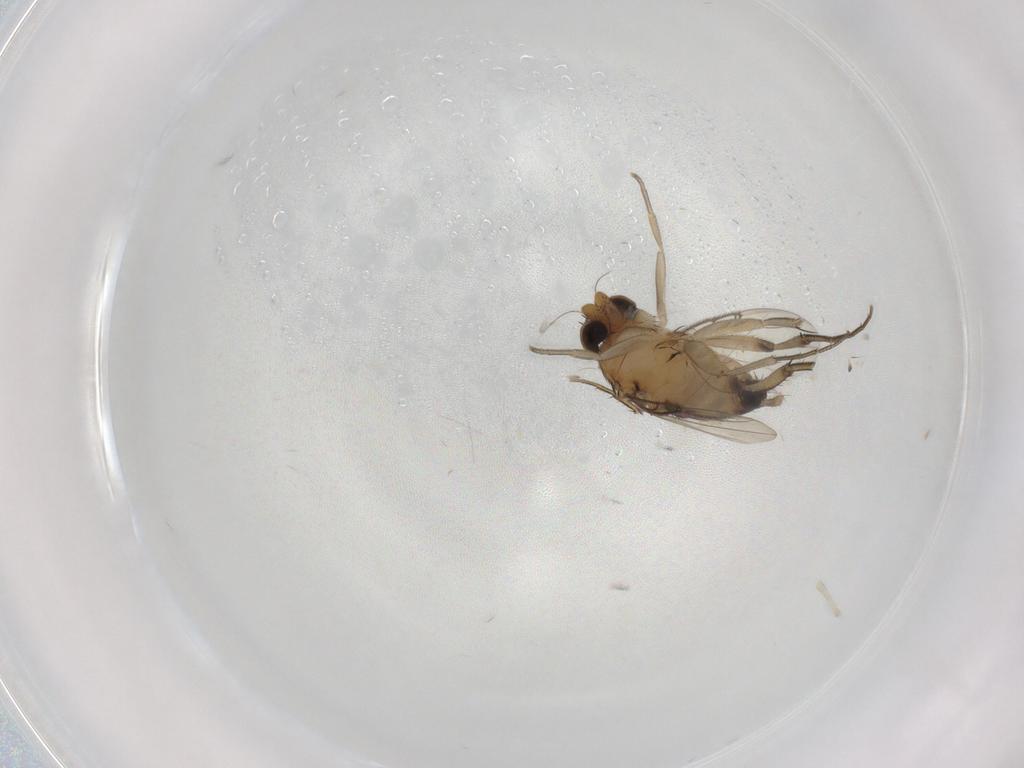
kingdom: Animalia
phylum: Arthropoda
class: Insecta
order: Diptera
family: Phoridae
